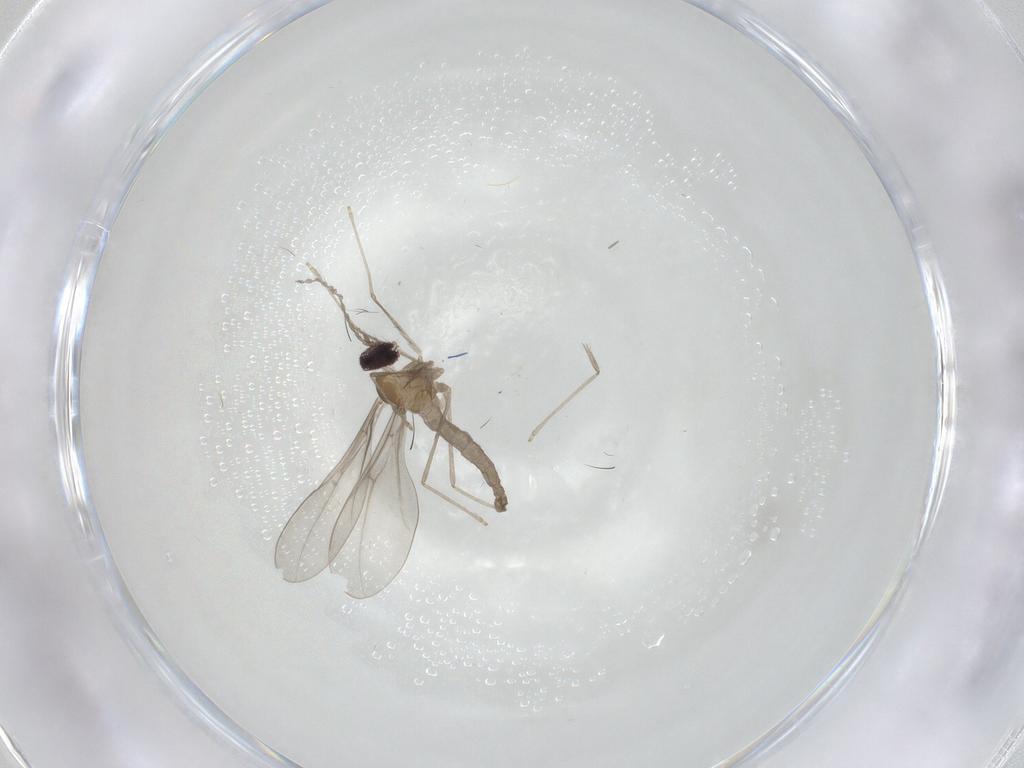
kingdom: Animalia
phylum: Arthropoda
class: Insecta
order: Diptera
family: Cecidomyiidae
